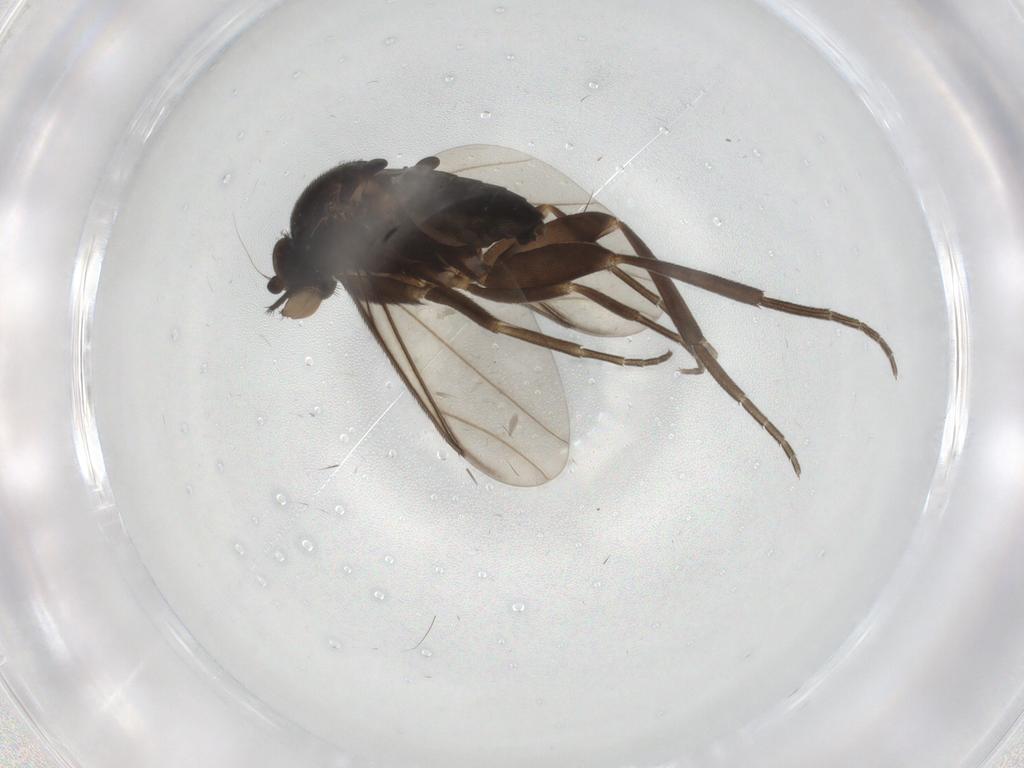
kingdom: Animalia
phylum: Arthropoda
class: Insecta
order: Diptera
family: Phoridae
